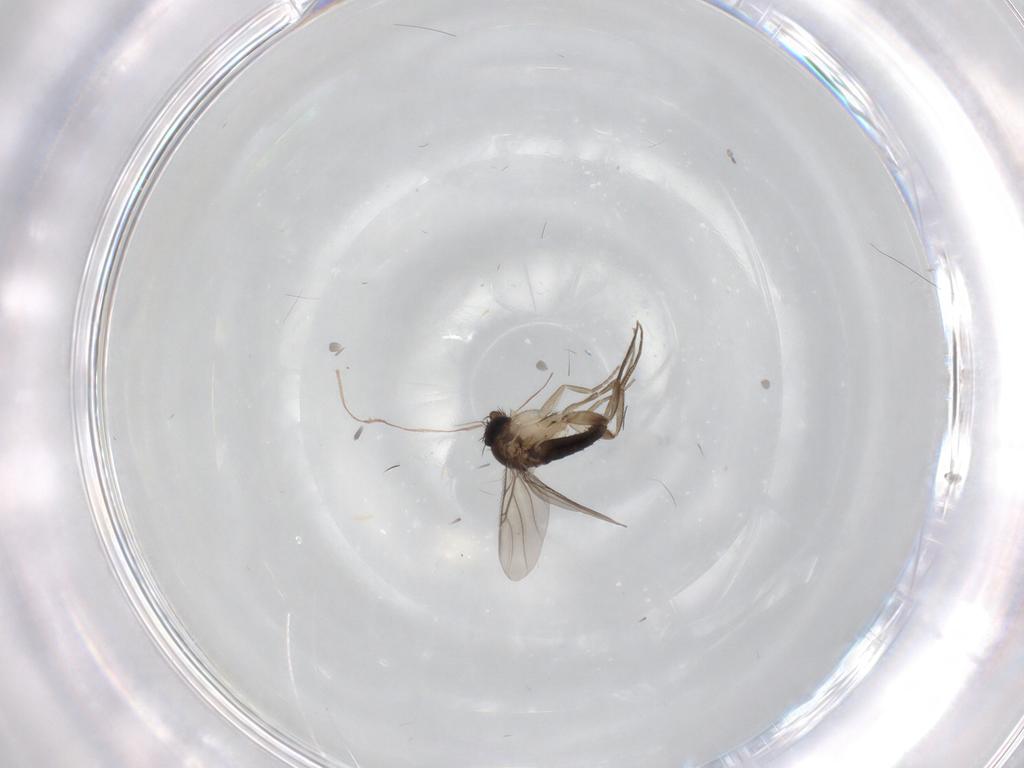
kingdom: Animalia
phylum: Arthropoda
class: Insecta
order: Diptera
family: Phoridae
